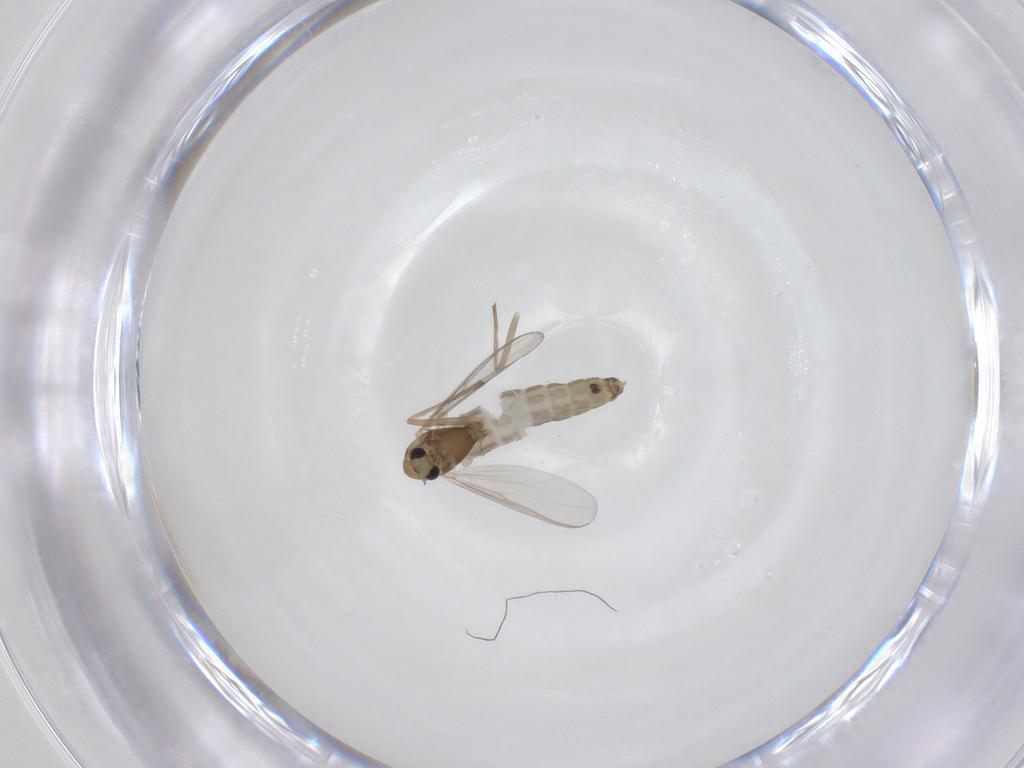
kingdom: Animalia
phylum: Arthropoda
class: Insecta
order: Diptera
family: Chironomidae
